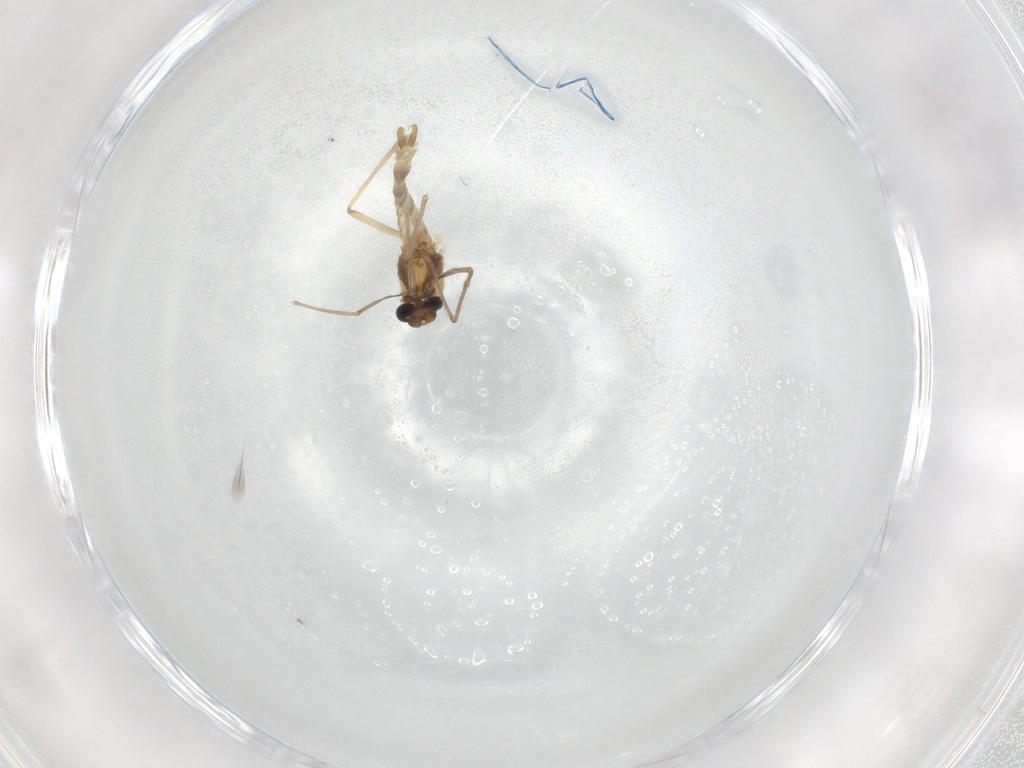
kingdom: Animalia
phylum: Arthropoda
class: Insecta
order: Diptera
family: Chironomidae
